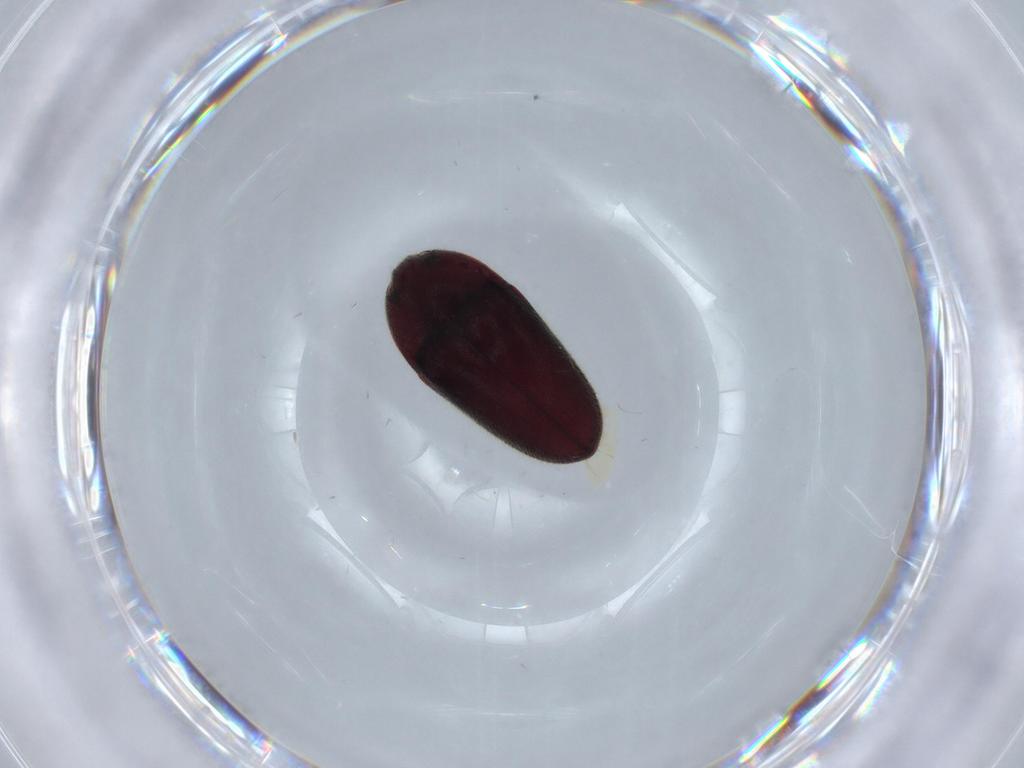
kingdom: Animalia
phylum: Arthropoda
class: Insecta
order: Coleoptera
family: Throscidae
